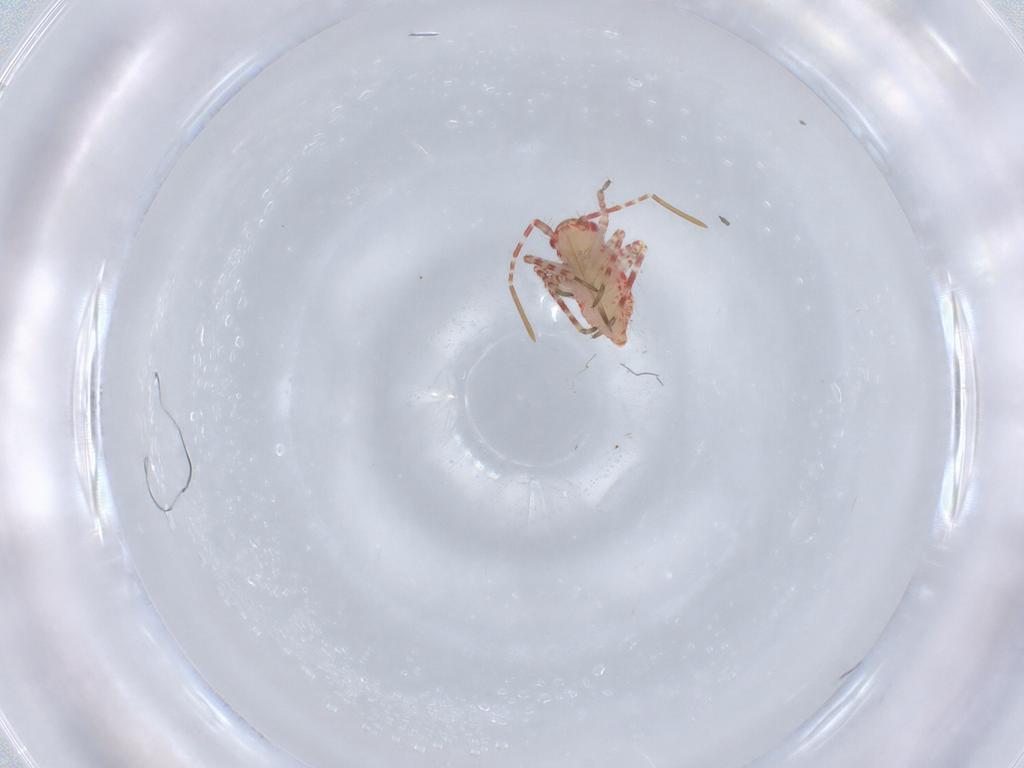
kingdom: Animalia
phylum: Arthropoda
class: Insecta
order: Hemiptera
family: Miridae
